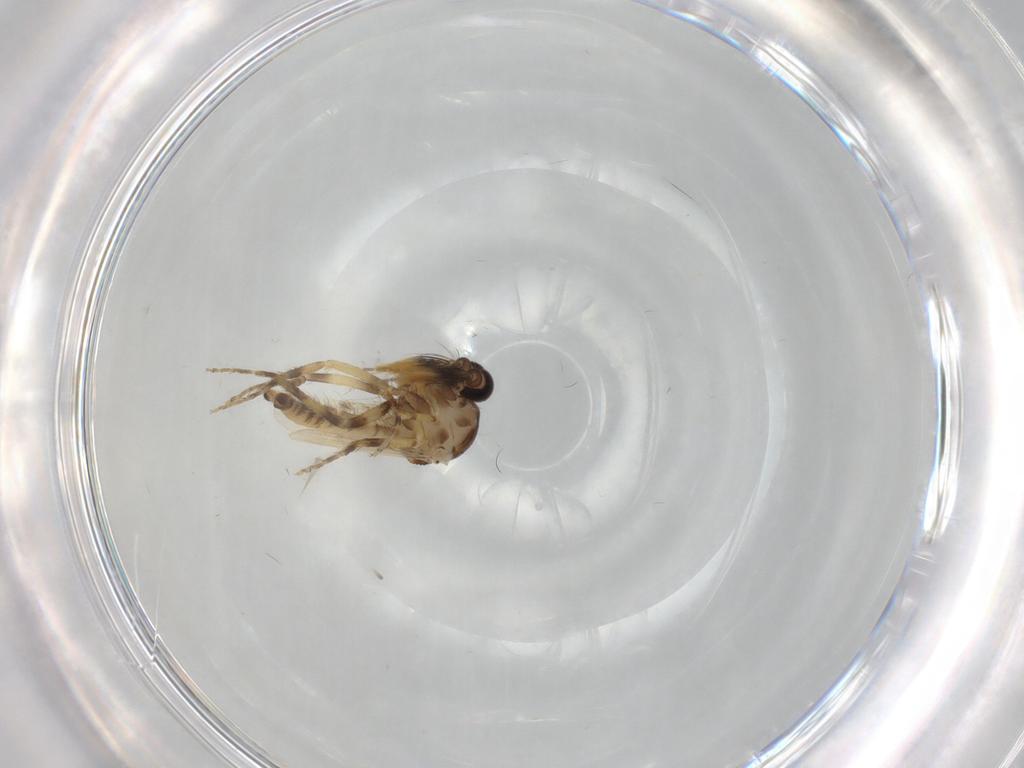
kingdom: Animalia
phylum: Arthropoda
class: Insecta
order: Diptera
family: Ceratopogonidae
